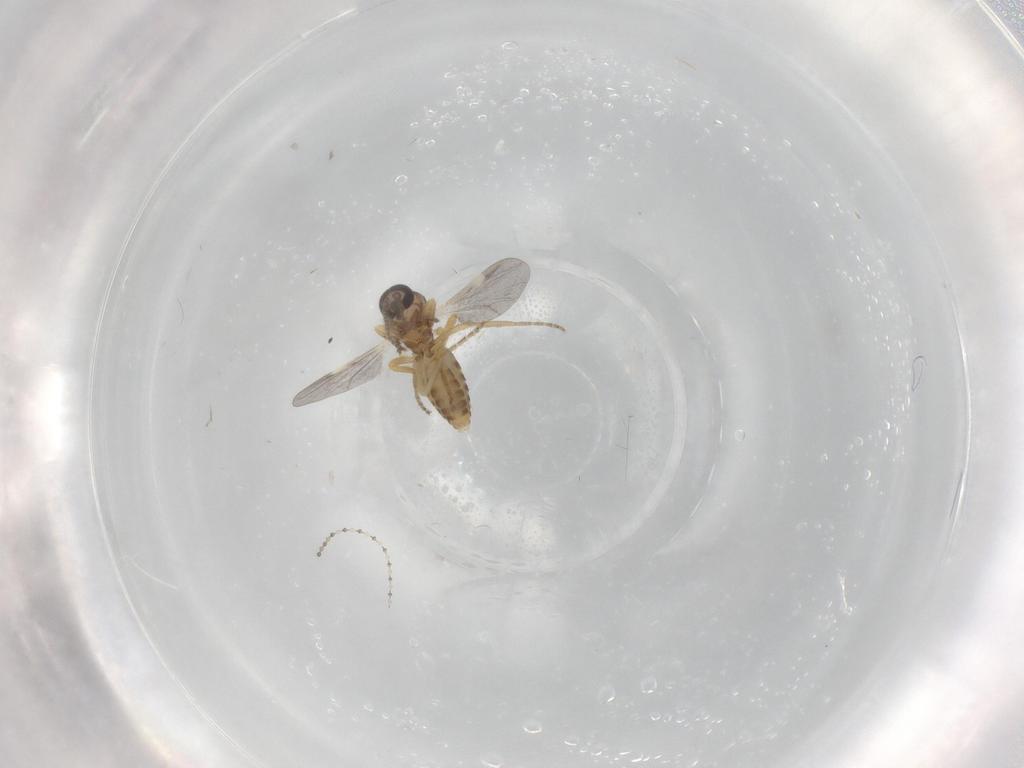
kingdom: Animalia
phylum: Arthropoda
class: Insecta
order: Diptera
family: Ceratopogonidae
